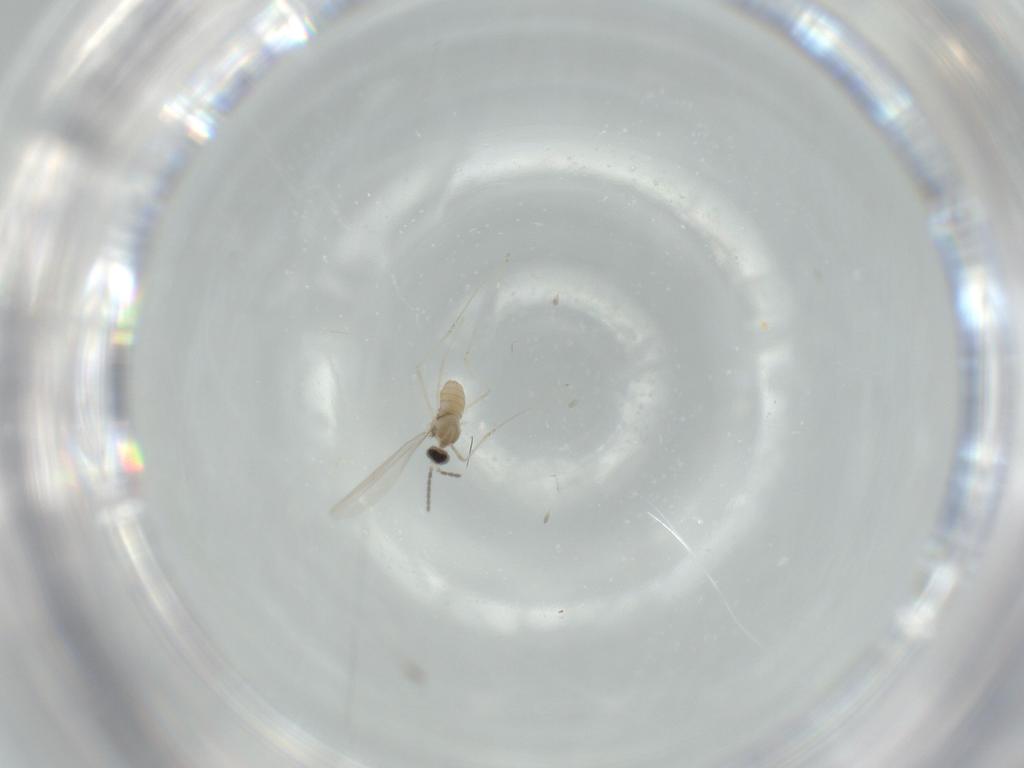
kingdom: Animalia
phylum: Arthropoda
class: Insecta
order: Diptera
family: Cecidomyiidae
